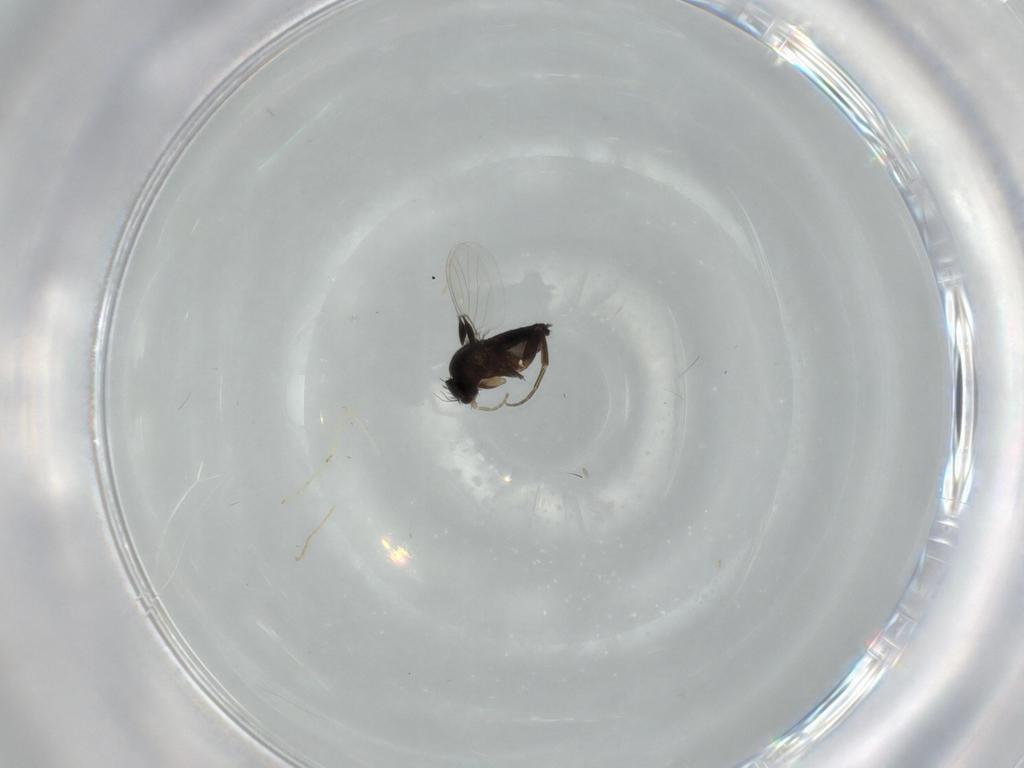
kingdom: Animalia
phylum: Arthropoda
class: Insecta
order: Diptera
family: Phoridae
